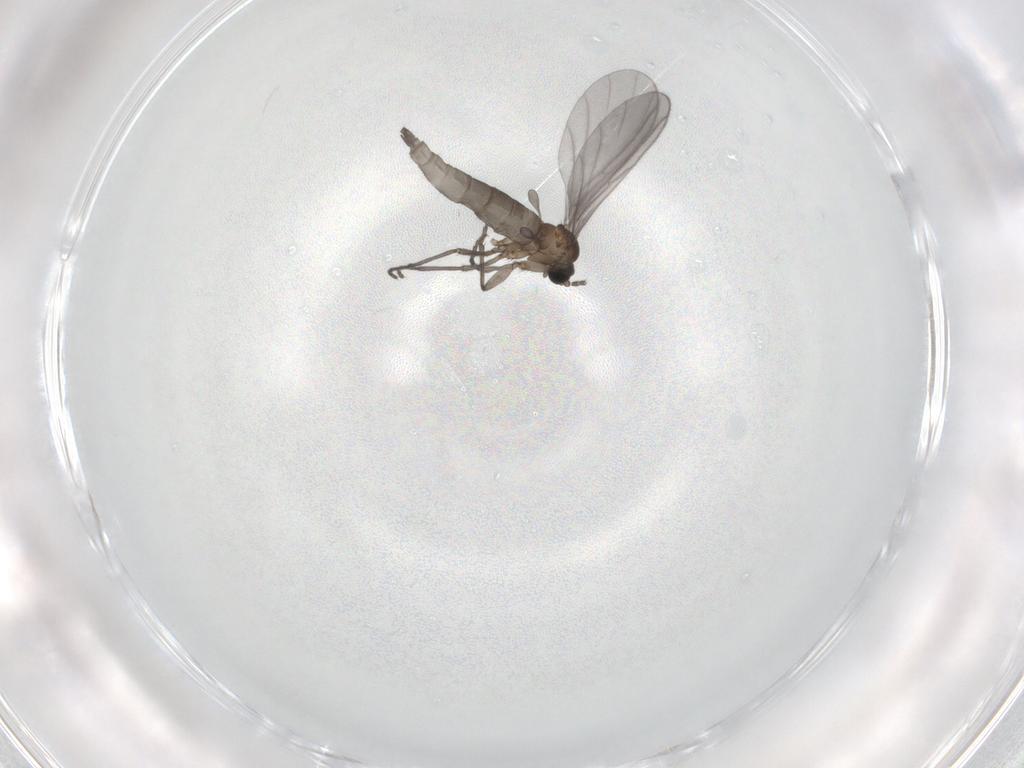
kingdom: Animalia
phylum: Arthropoda
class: Insecta
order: Diptera
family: Sciaridae
